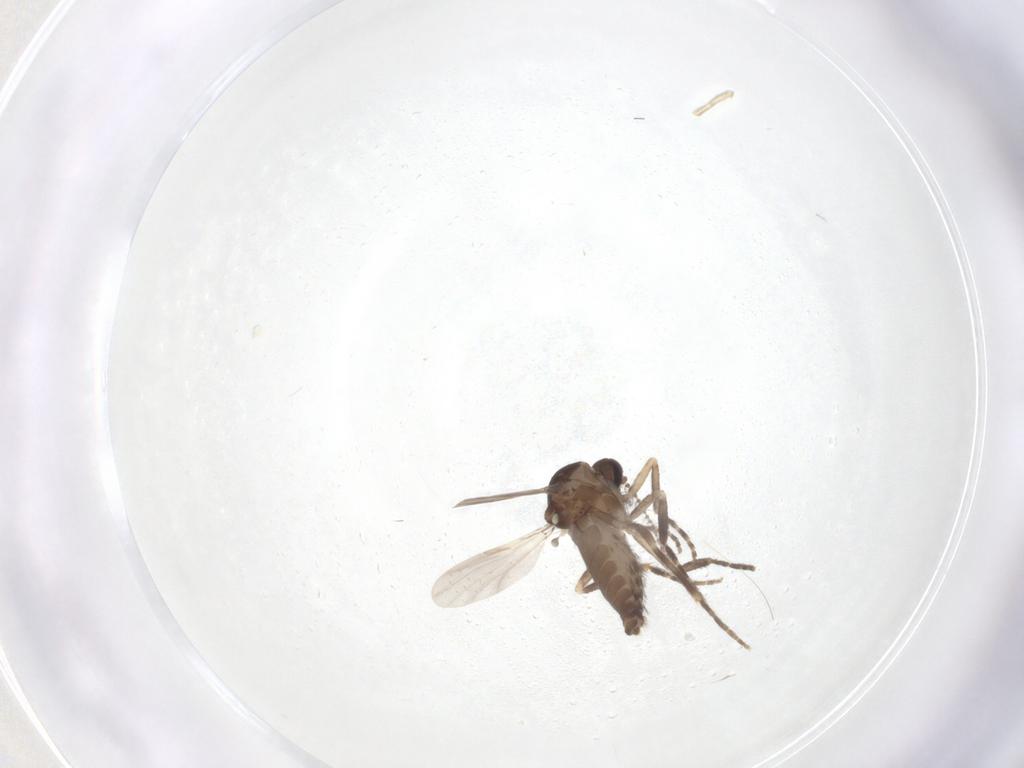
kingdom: Animalia
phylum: Arthropoda
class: Insecta
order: Diptera
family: Ceratopogonidae
